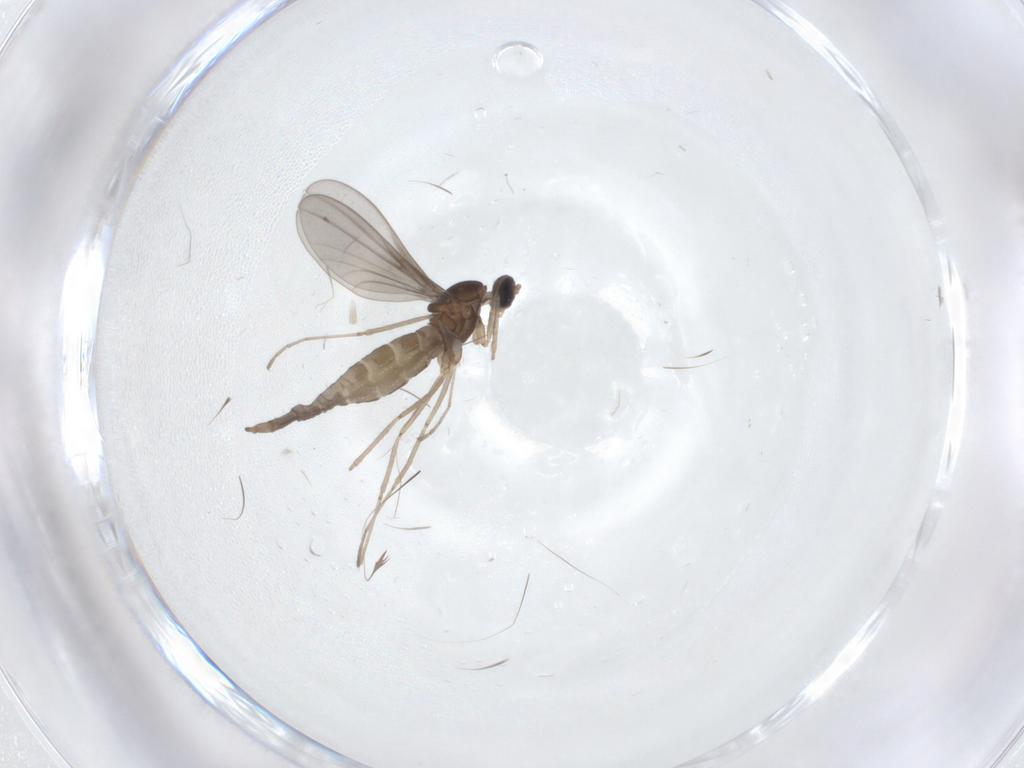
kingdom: Animalia
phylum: Arthropoda
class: Insecta
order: Diptera
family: Cecidomyiidae
